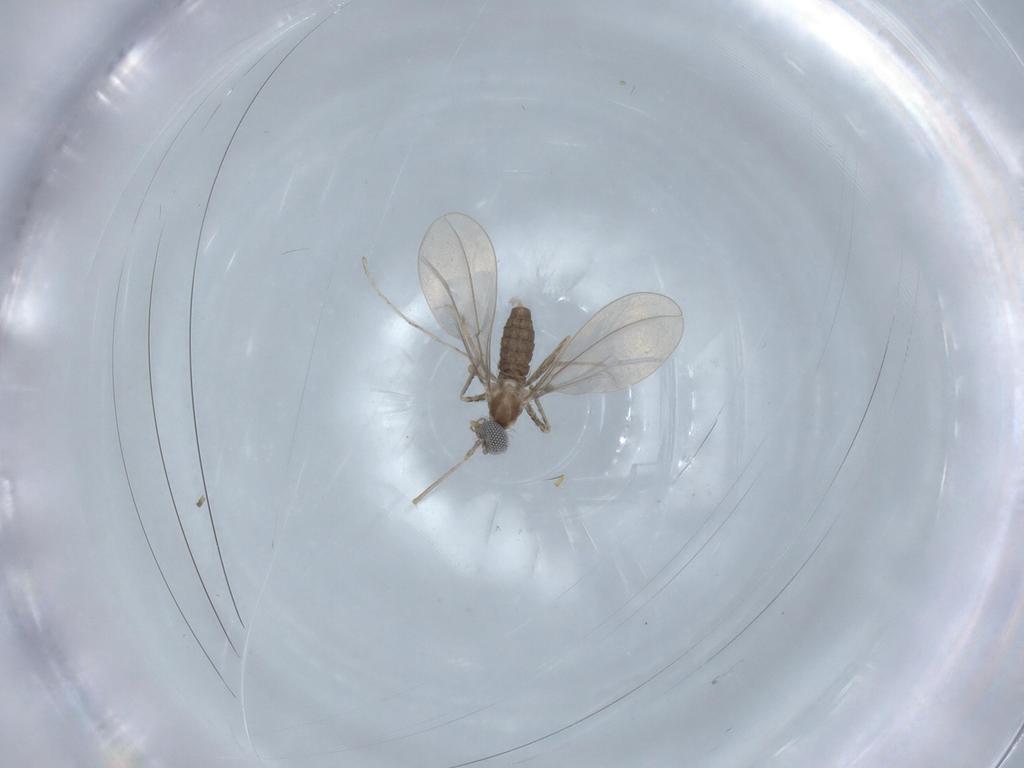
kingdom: Animalia
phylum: Arthropoda
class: Insecta
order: Diptera
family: Cecidomyiidae
